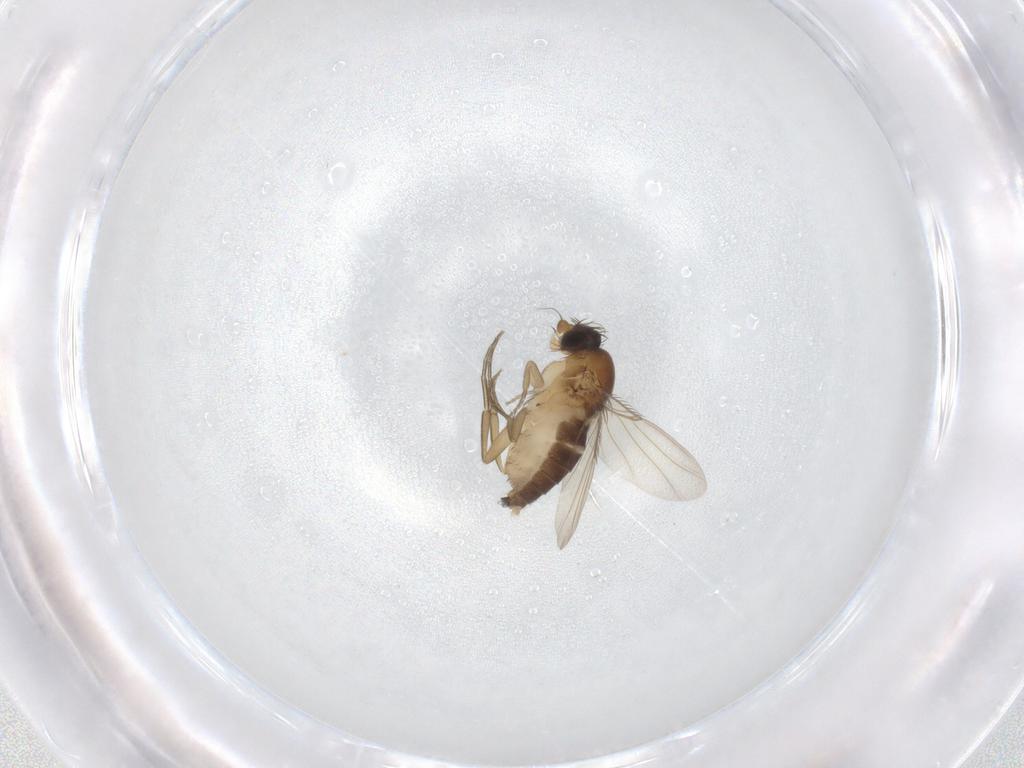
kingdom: Animalia
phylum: Arthropoda
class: Insecta
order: Diptera
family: Phoridae
